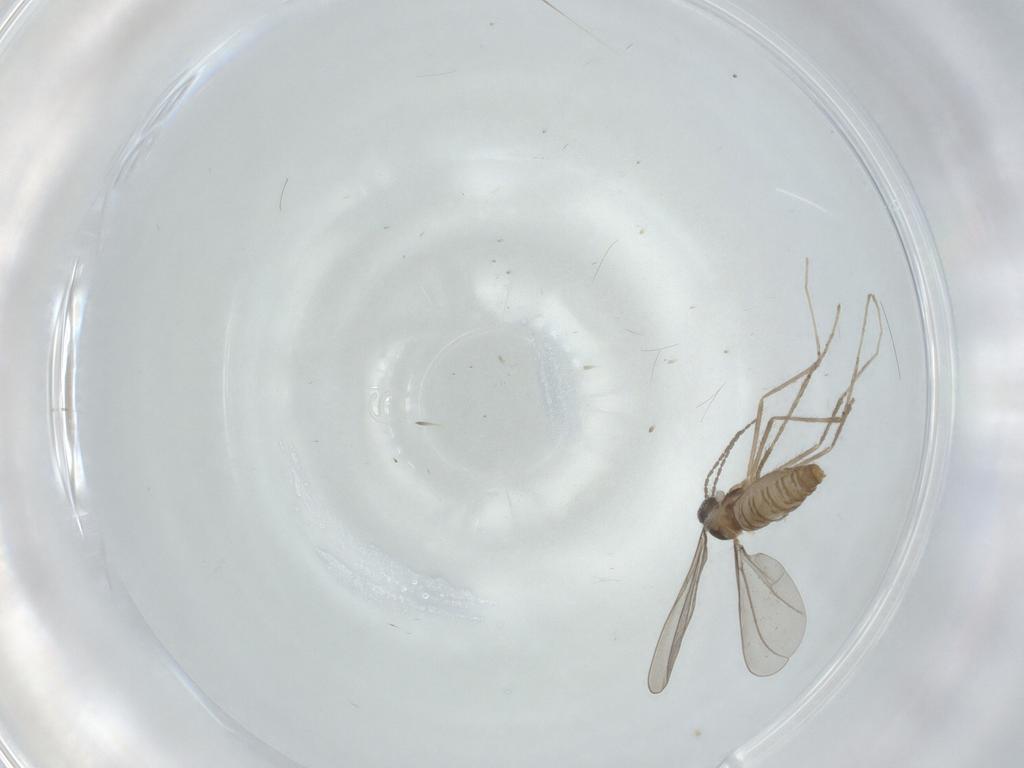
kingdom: Animalia
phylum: Arthropoda
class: Insecta
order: Diptera
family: Cecidomyiidae
